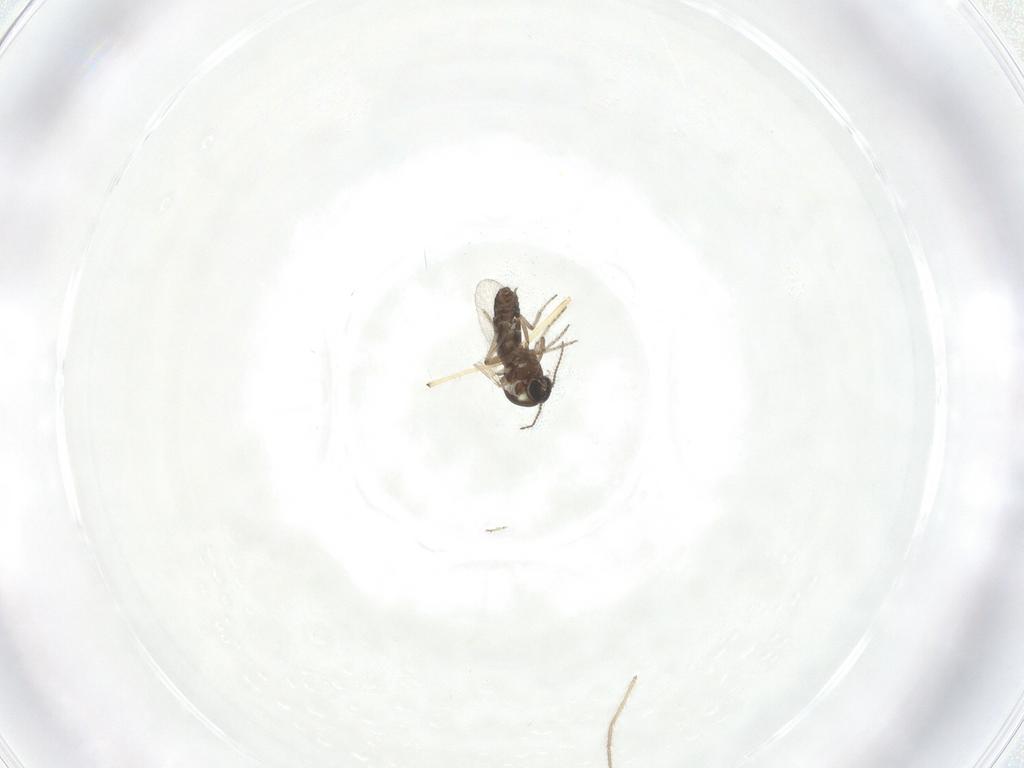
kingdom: Animalia
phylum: Arthropoda
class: Insecta
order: Diptera
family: Ceratopogonidae
